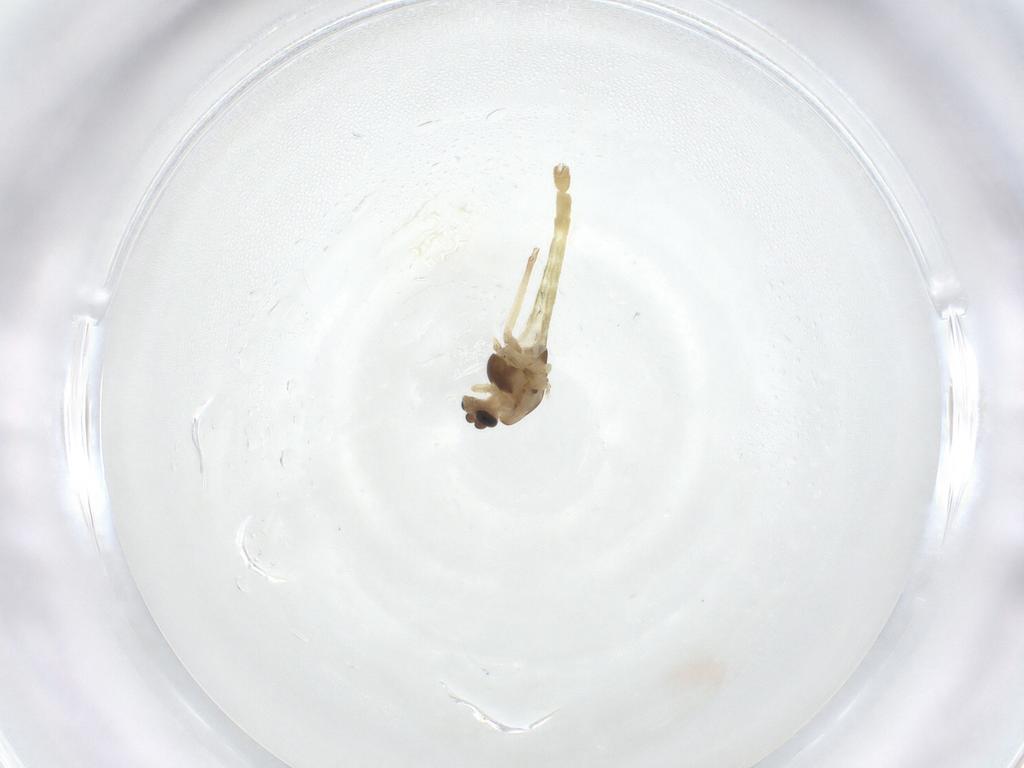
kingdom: Animalia
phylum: Arthropoda
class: Insecta
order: Diptera
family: Chironomidae
